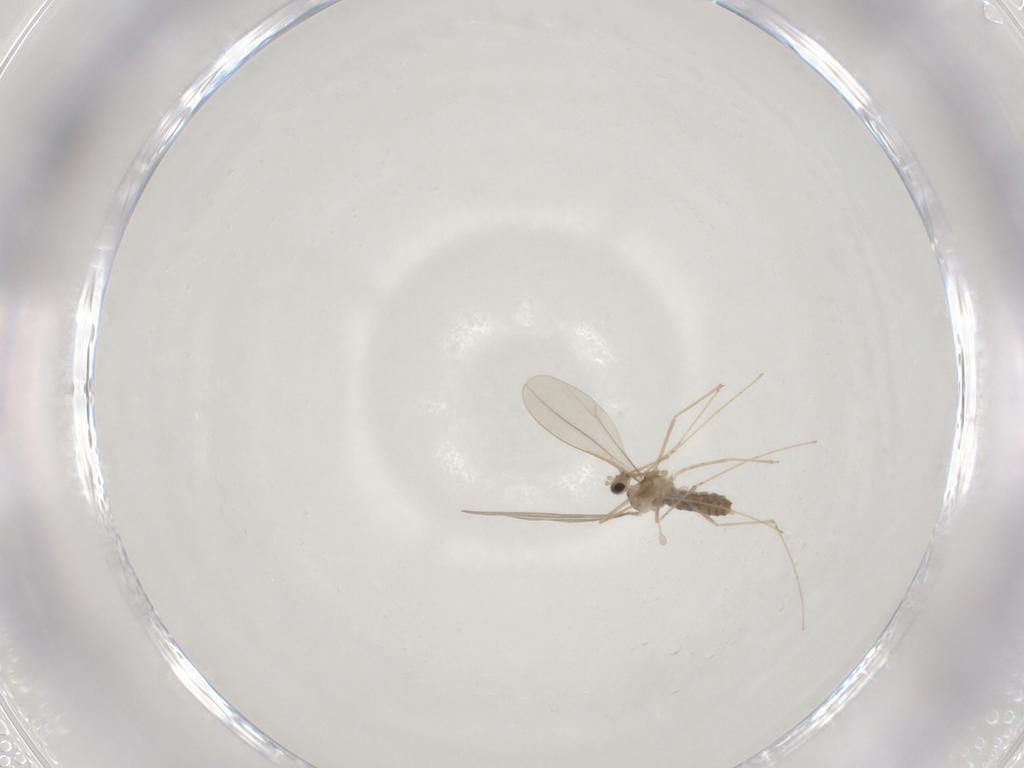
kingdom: Animalia
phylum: Arthropoda
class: Insecta
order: Diptera
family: Cecidomyiidae
